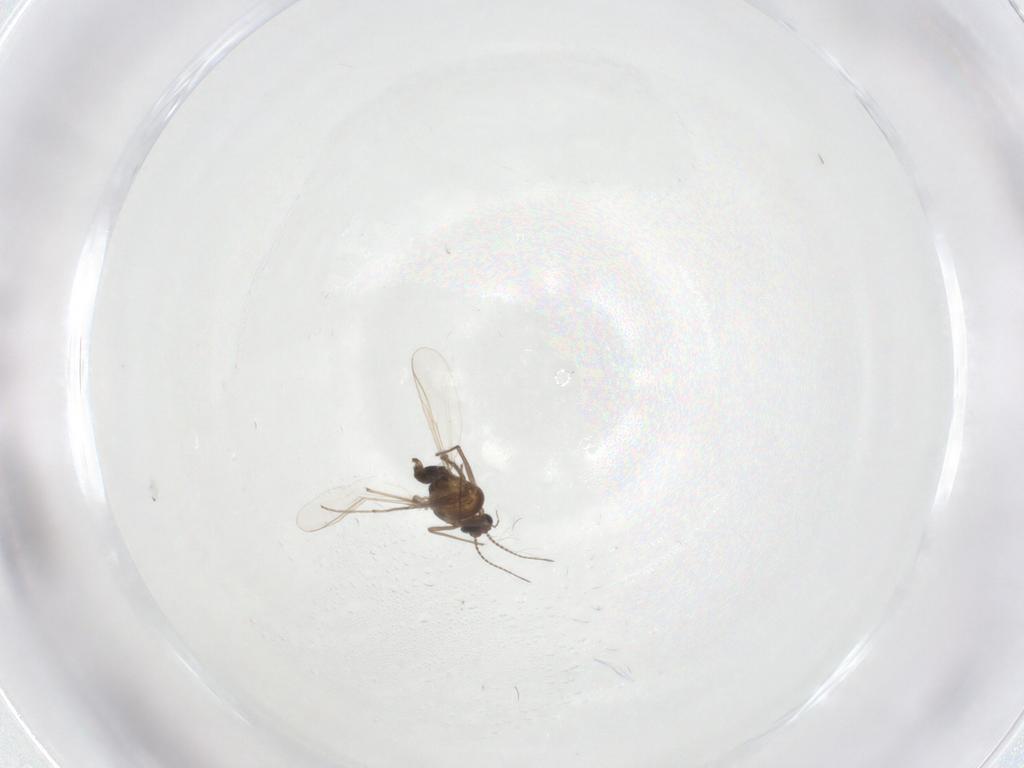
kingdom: Animalia
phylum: Arthropoda
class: Insecta
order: Diptera
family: Chironomidae
